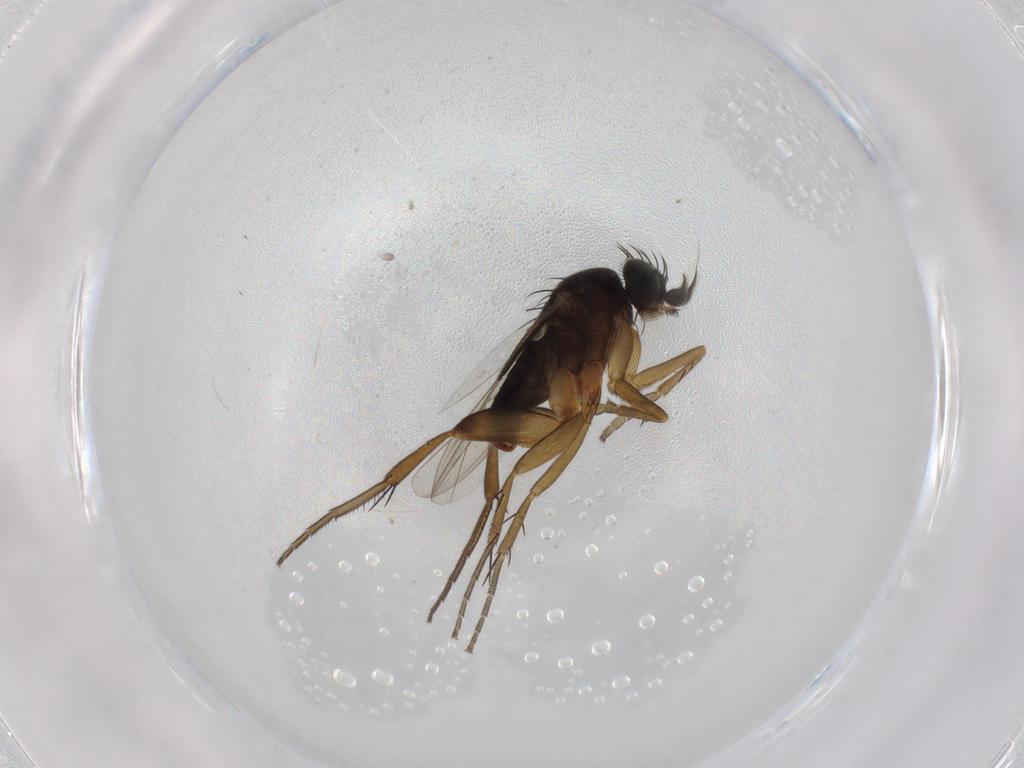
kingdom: Animalia
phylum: Arthropoda
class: Insecta
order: Diptera
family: Phoridae
